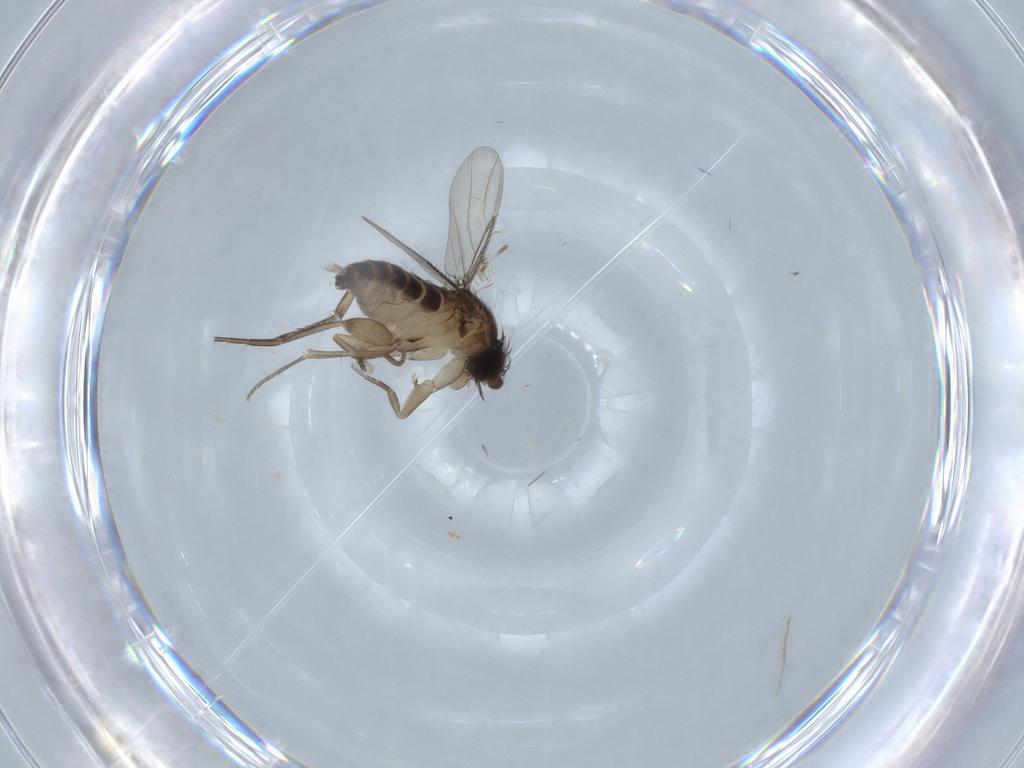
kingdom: Animalia
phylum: Arthropoda
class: Insecta
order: Diptera
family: Phoridae
